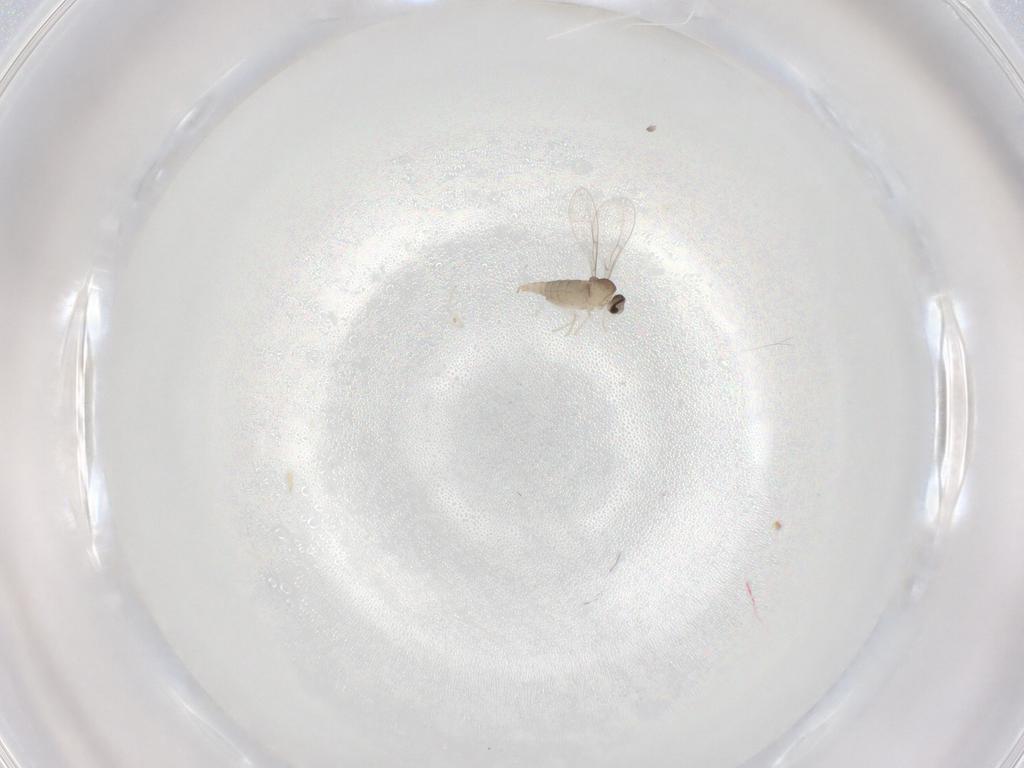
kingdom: Animalia
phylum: Arthropoda
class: Insecta
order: Diptera
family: Cecidomyiidae
